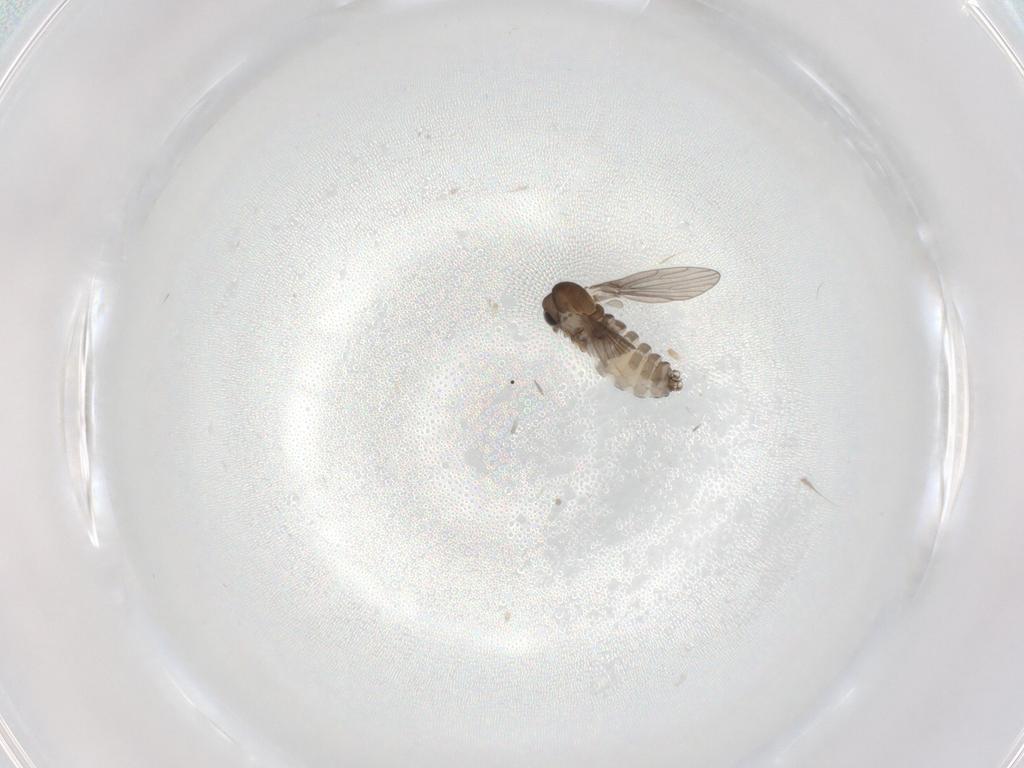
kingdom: Animalia
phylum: Arthropoda
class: Insecta
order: Diptera
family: Psychodidae
